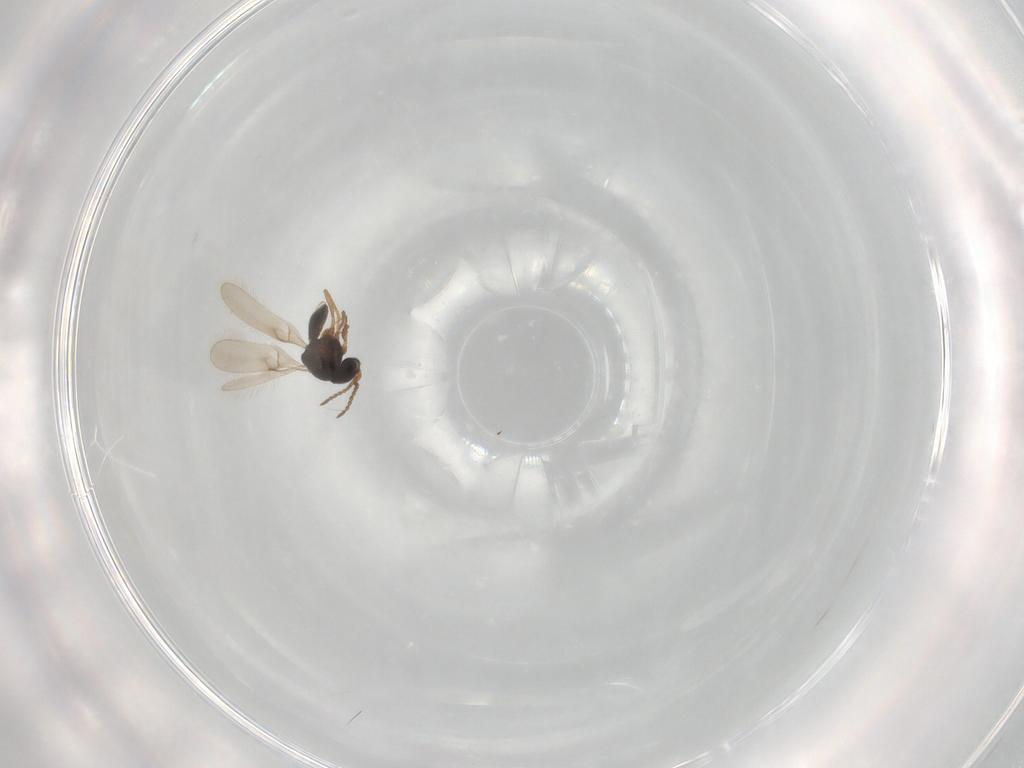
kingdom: Animalia
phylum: Arthropoda
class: Insecta
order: Hymenoptera
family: Scelionidae
